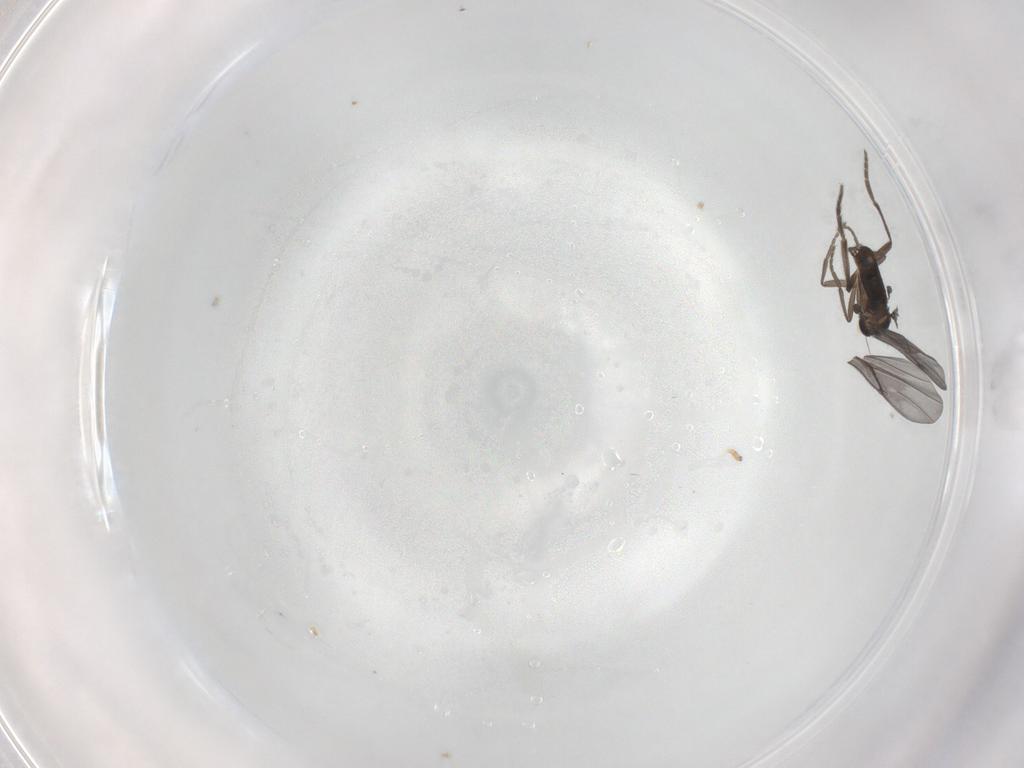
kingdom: Animalia
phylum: Arthropoda
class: Insecta
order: Diptera
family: Phoridae
